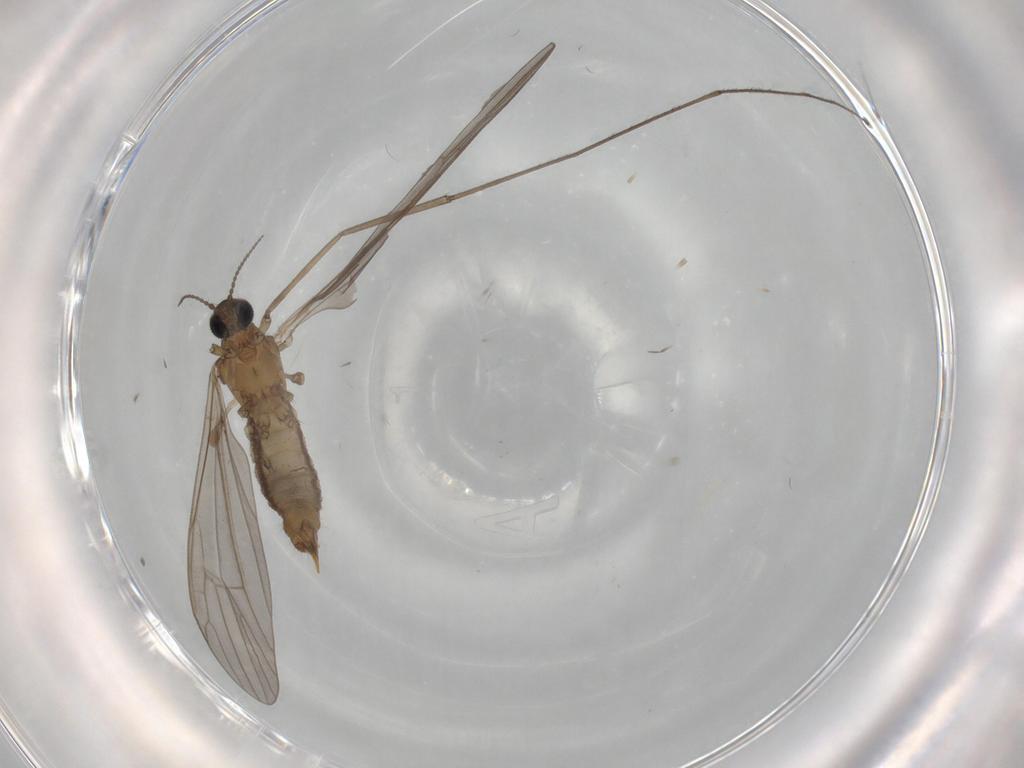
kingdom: Animalia
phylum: Arthropoda
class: Insecta
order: Diptera
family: Limoniidae
